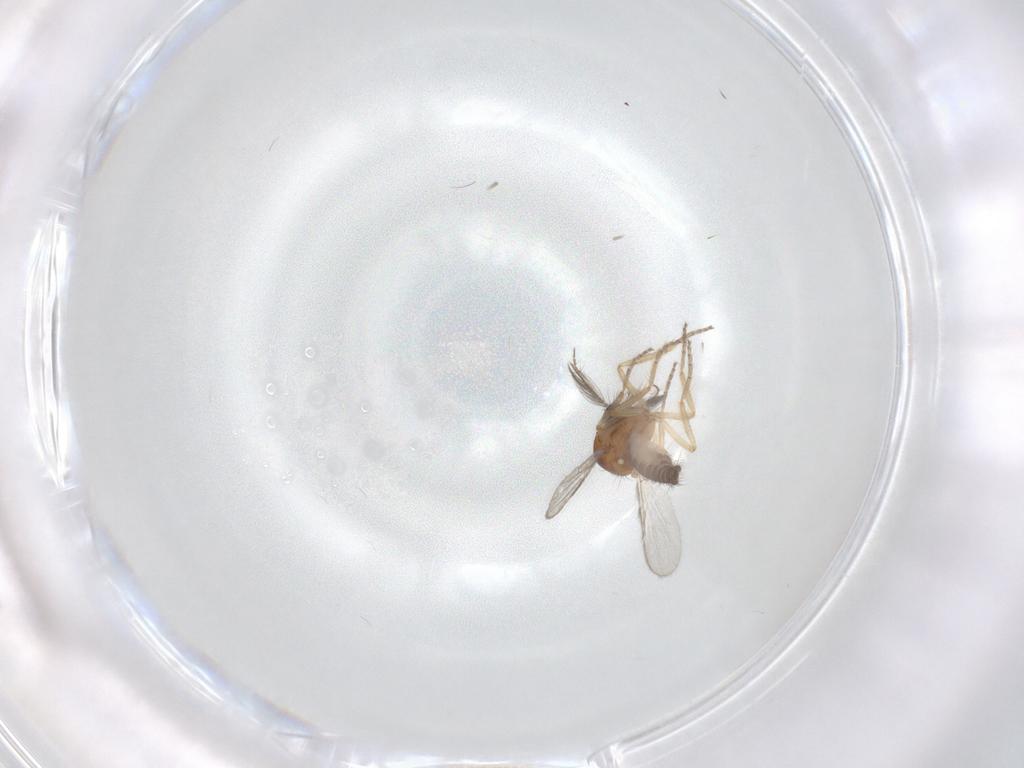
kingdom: Animalia
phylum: Arthropoda
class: Insecta
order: Diptera
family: Ceratopogonidae
